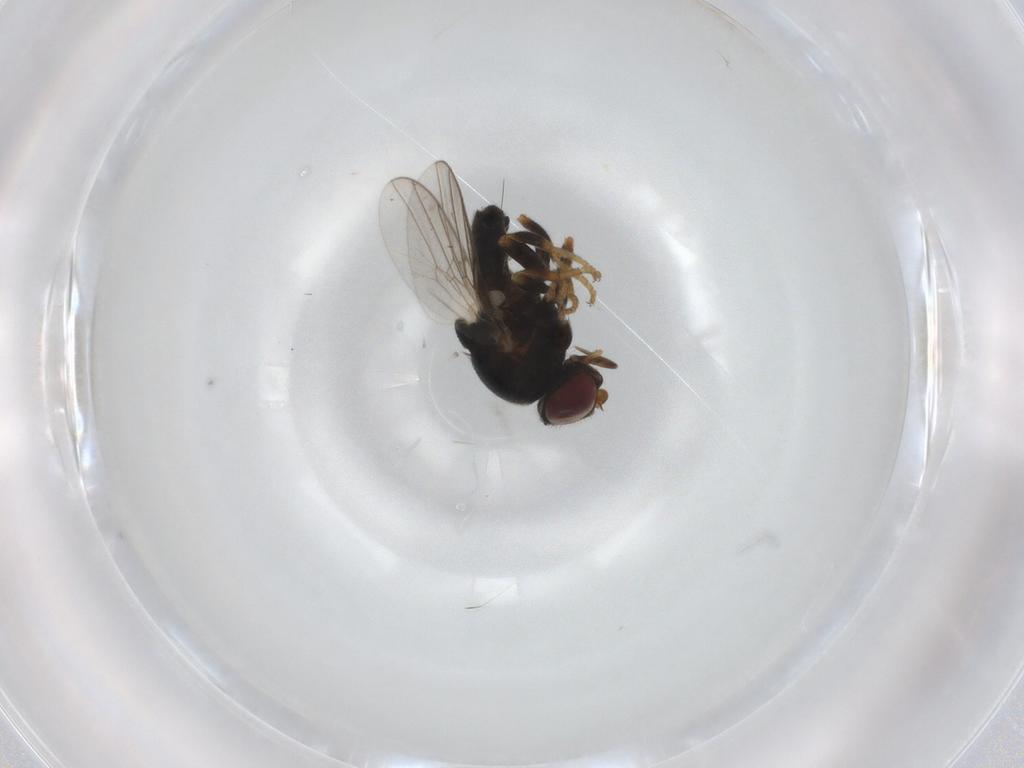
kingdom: Animalia
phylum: Arthropoda
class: Insecta
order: Diptera
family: Chloropidae
